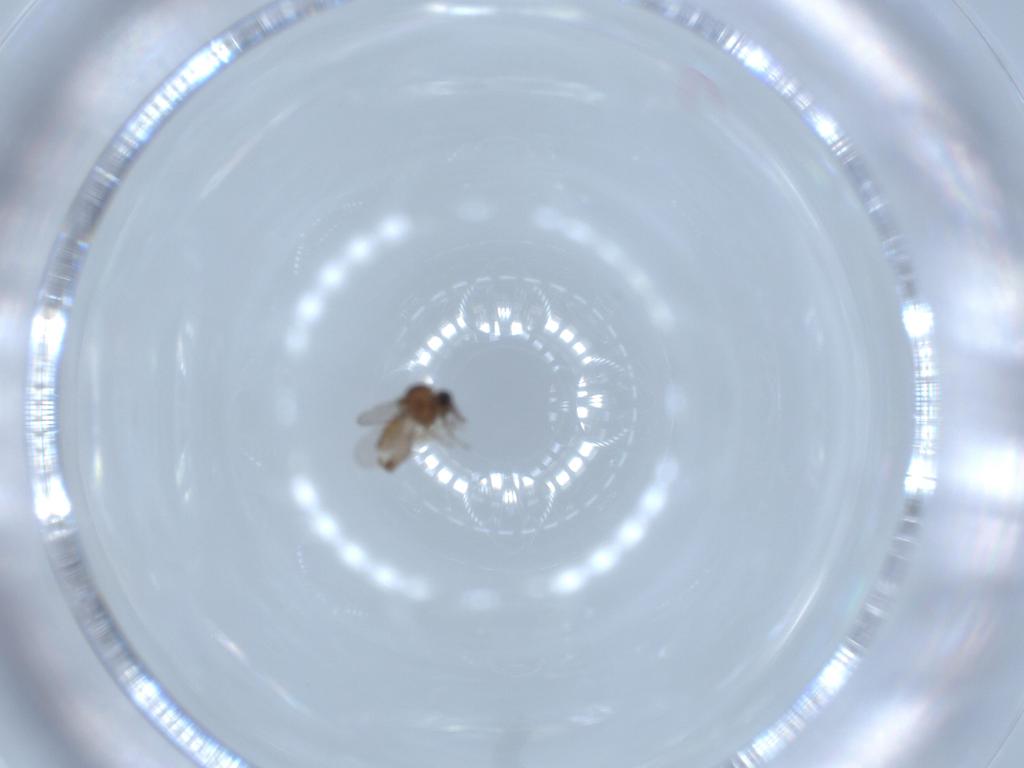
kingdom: Animalia
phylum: Arthropoda
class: Insecta
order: Diptera
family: Ceratopogonidae
